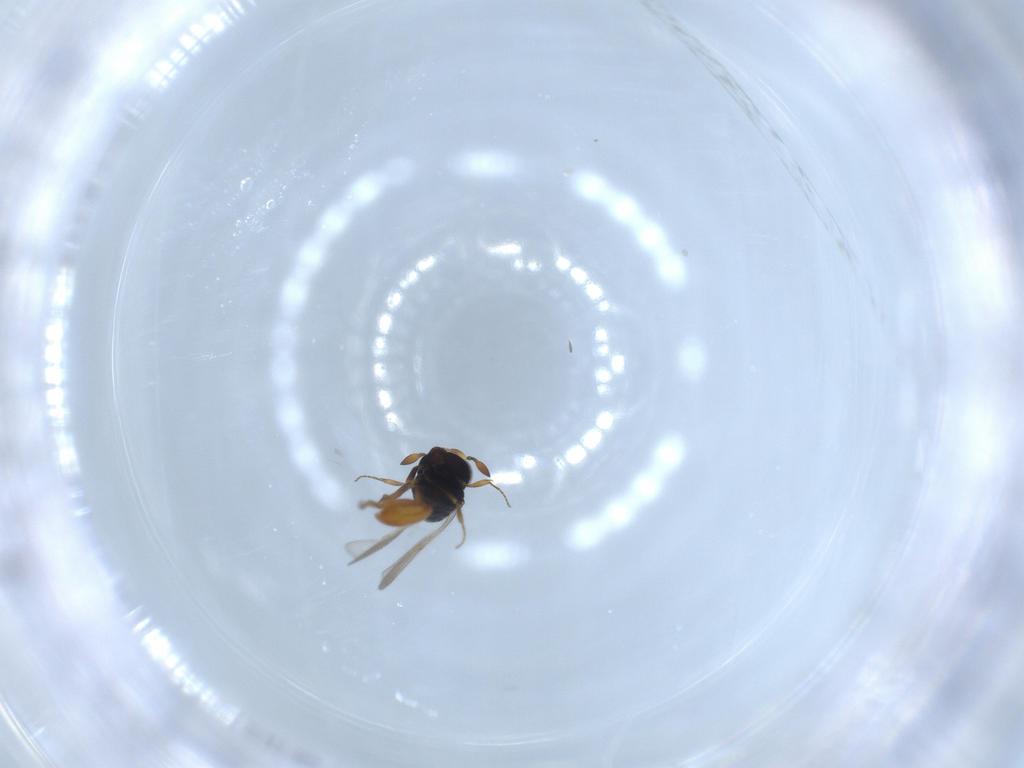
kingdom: Animalia
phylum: Arthropoda
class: Insecta
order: Hymenoptera
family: Scelionidae
